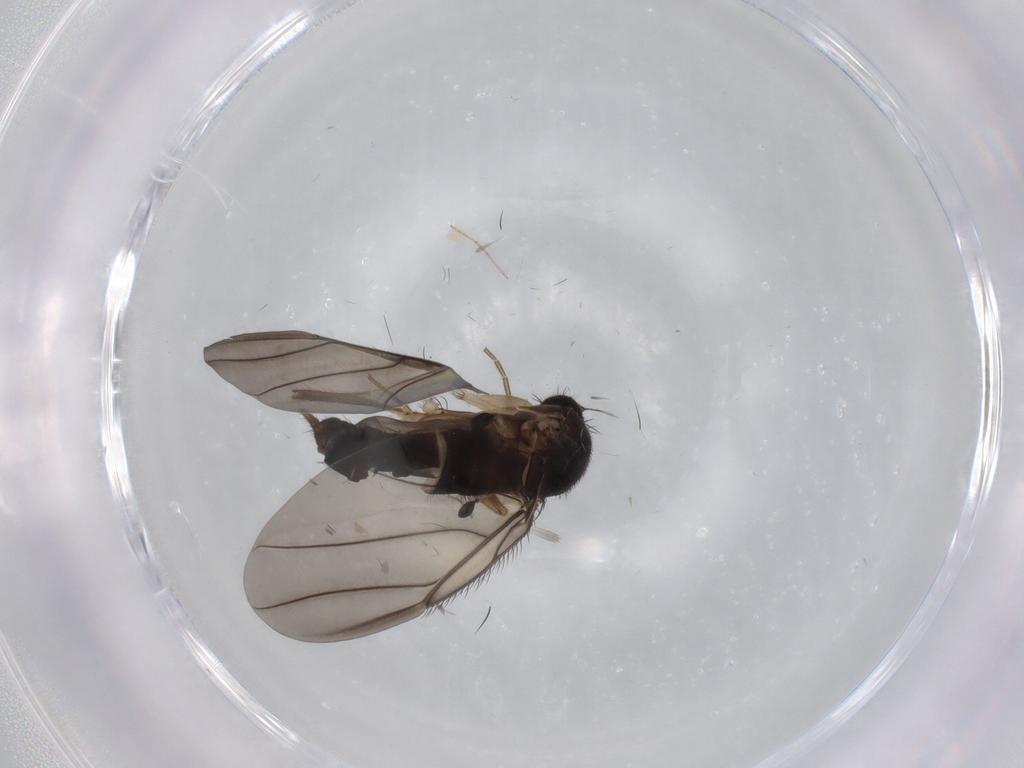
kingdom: Animalia
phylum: Arthropoda
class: Insecta
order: Diptera
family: Phoridae
